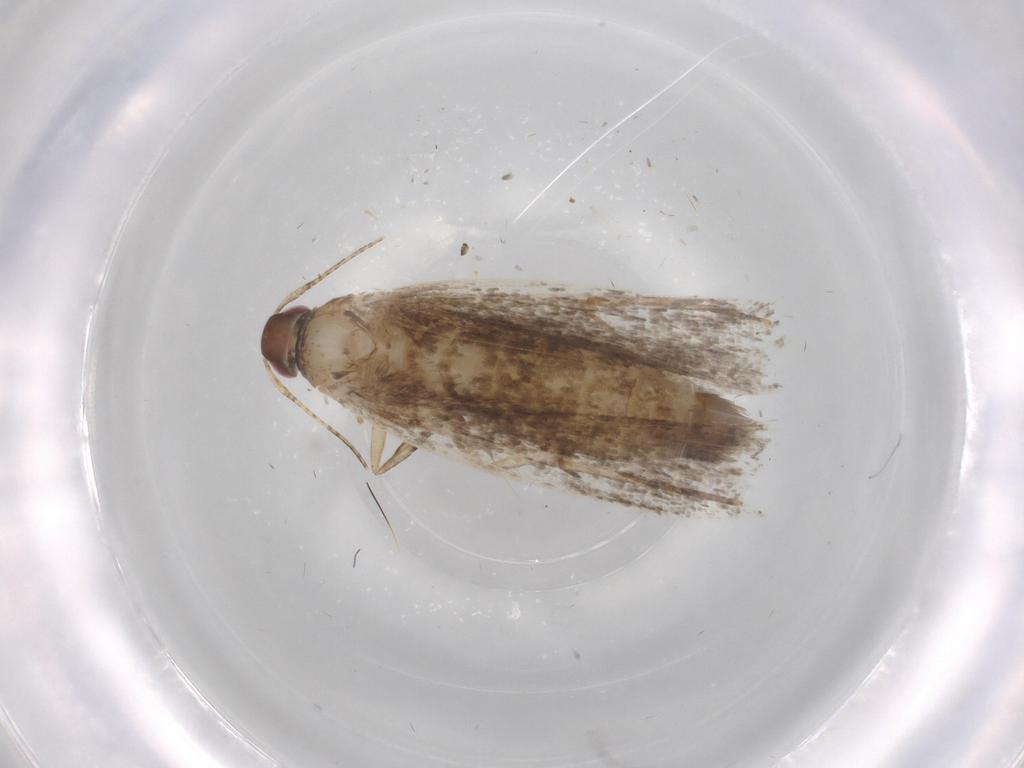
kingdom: Animalia
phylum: Arthropoda
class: Insecta
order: Lepidoptera
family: Gelechiidae
